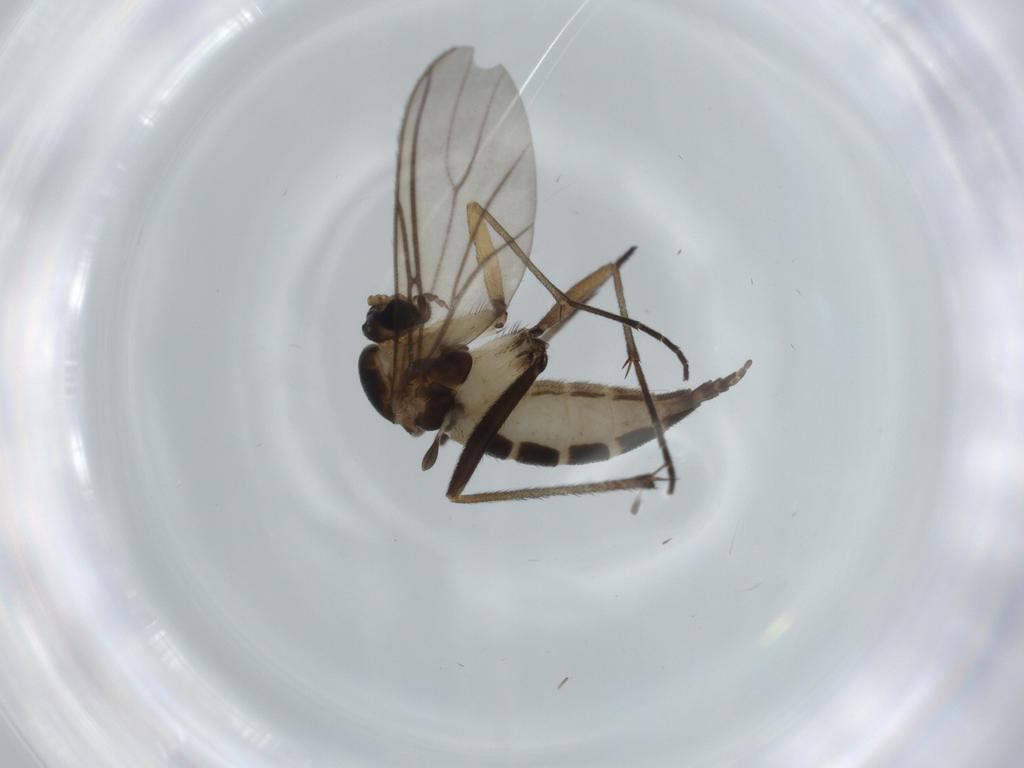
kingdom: Animalia
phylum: Arthropoda
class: Insecta
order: Diptera
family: Sciaridae
